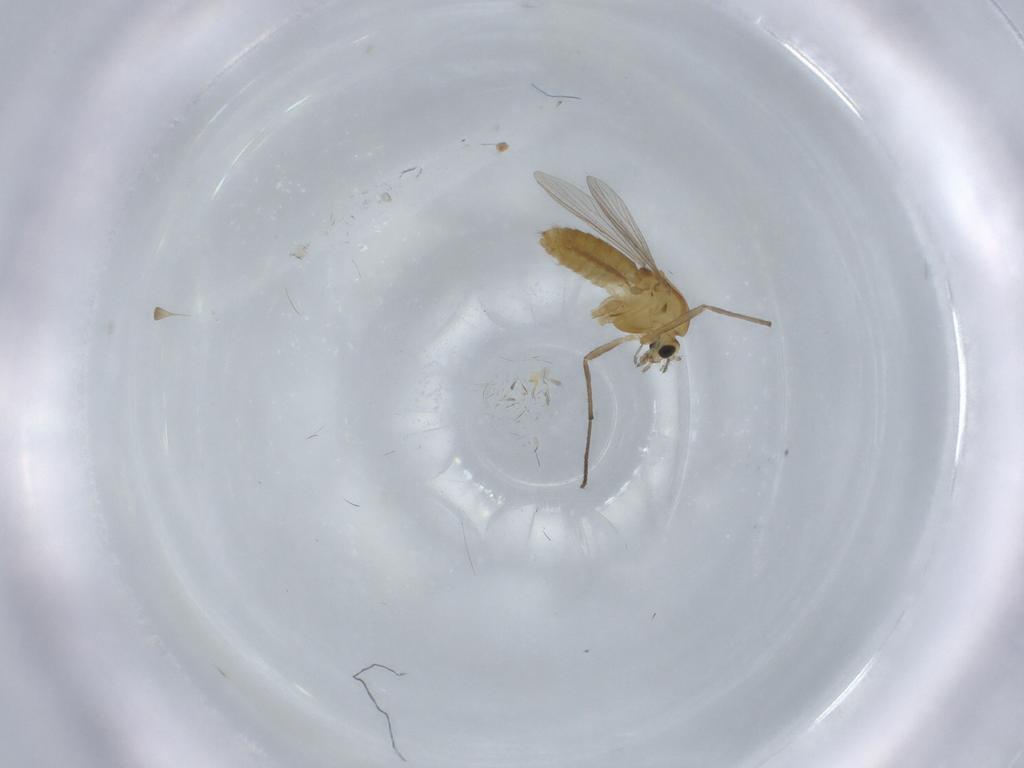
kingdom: Animalia
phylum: Arthropoda
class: Insecta
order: Diptera
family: Chironomidae
